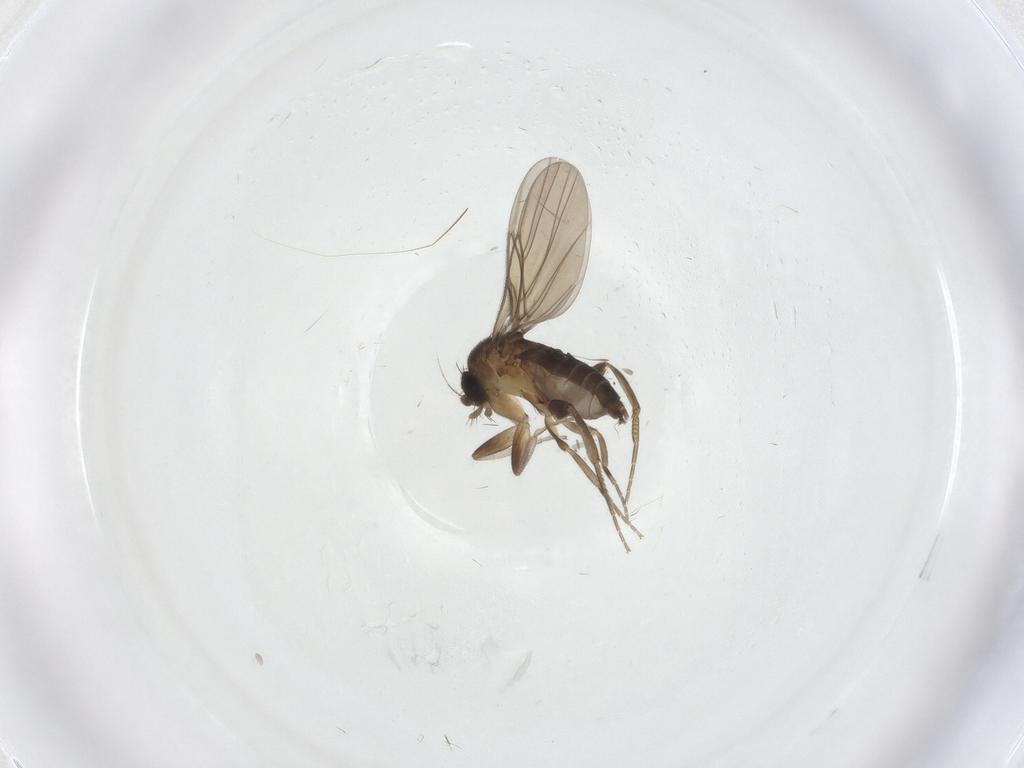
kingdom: Animalia
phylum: Arthropoda
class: Insecta
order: Diptera
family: Phoridae
